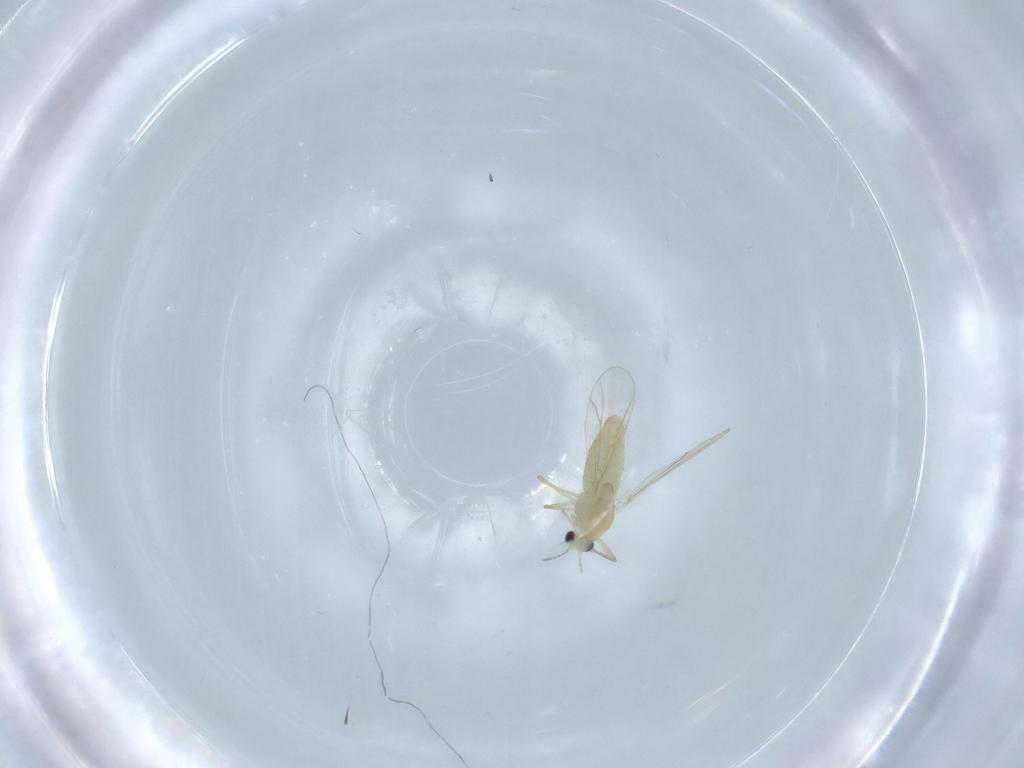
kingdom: Animalia
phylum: Arthropoda
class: Insecta
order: Diptera
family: Chironomidae
